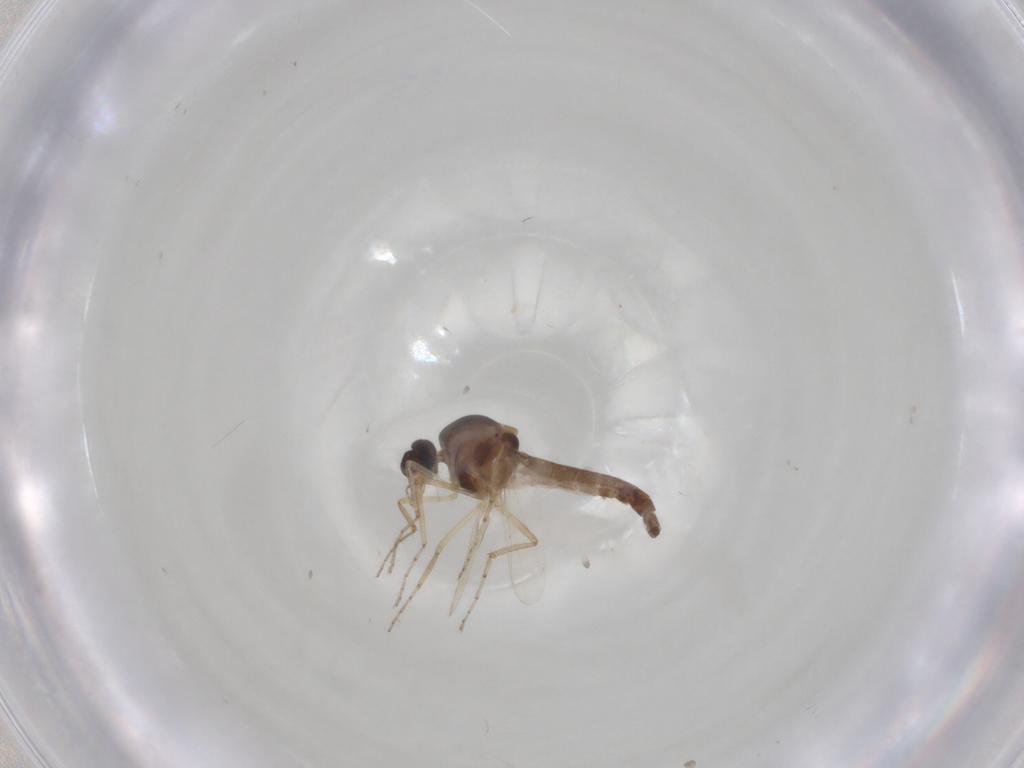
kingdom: Animalia
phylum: Arthropoda
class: Insecta
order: Diptera
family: Ceratopogonidae
